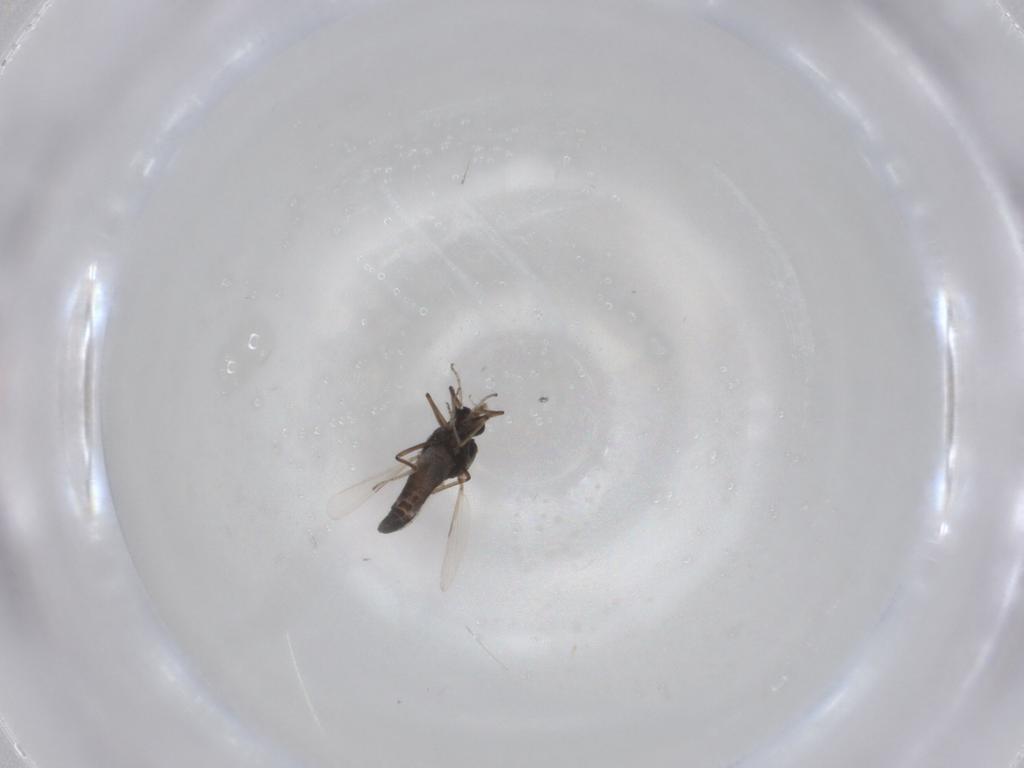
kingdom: Animalia
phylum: Arthropoda
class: Insecta
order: Diptera
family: Ceratopogonidae
